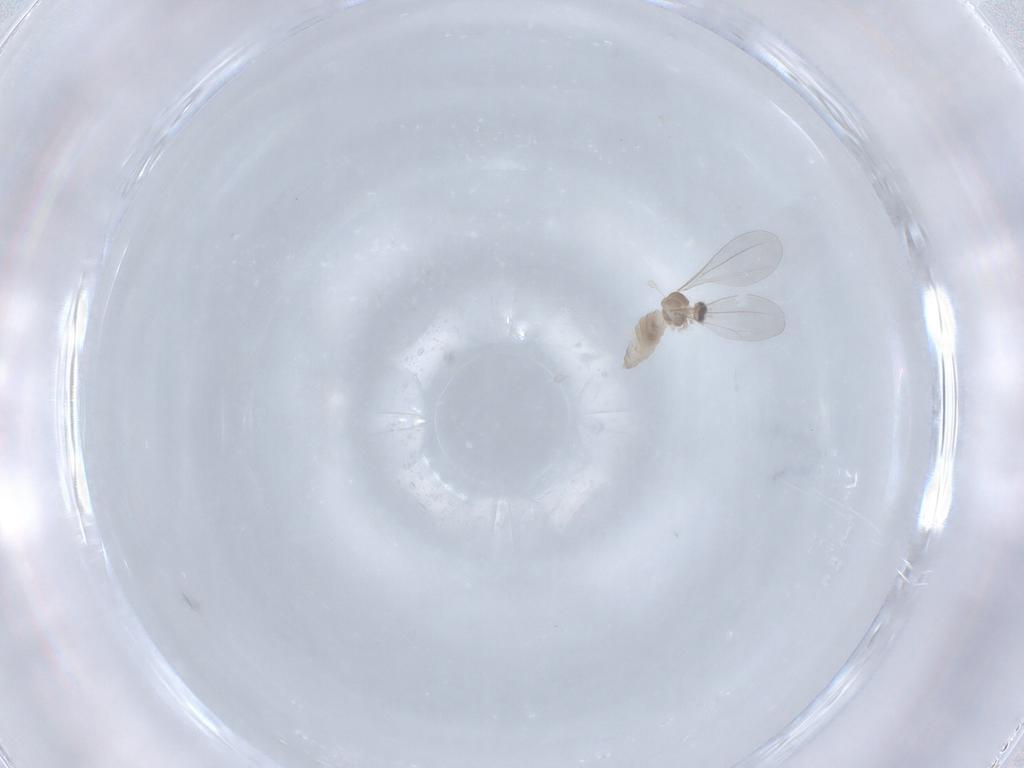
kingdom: Animalia
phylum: Arthropoda
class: Insecta
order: Diptera
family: Cecidomyiidae
